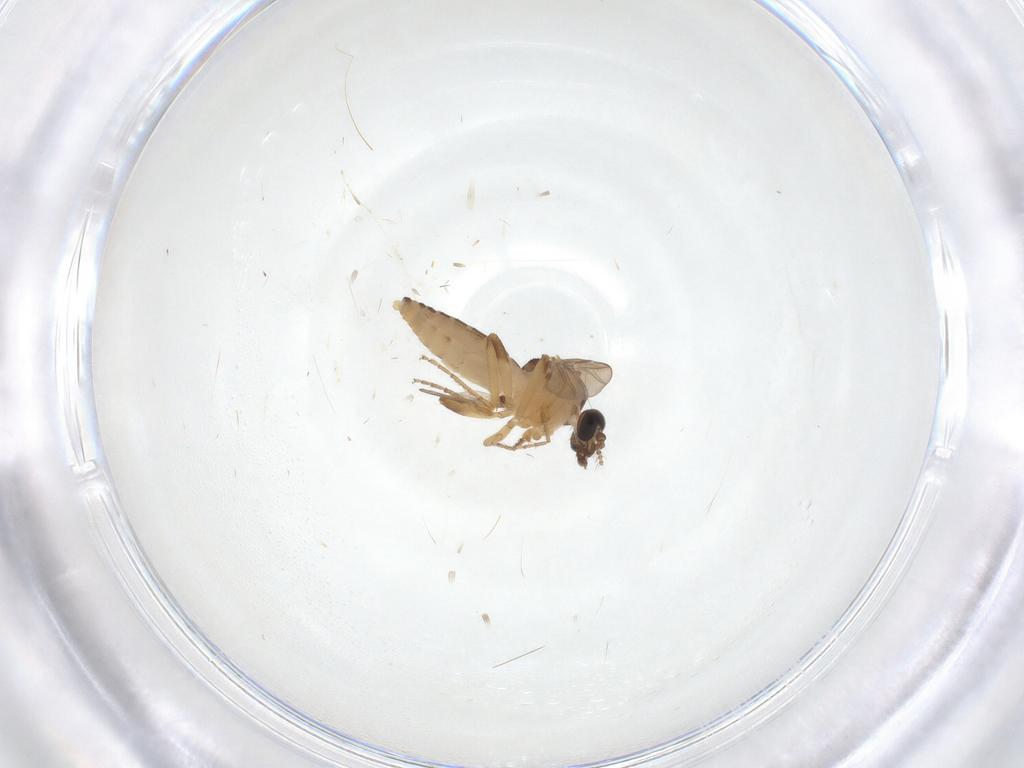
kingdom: Animalia
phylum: Arthropoda
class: Insecta
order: Diptera
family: Cecidomyiidae
